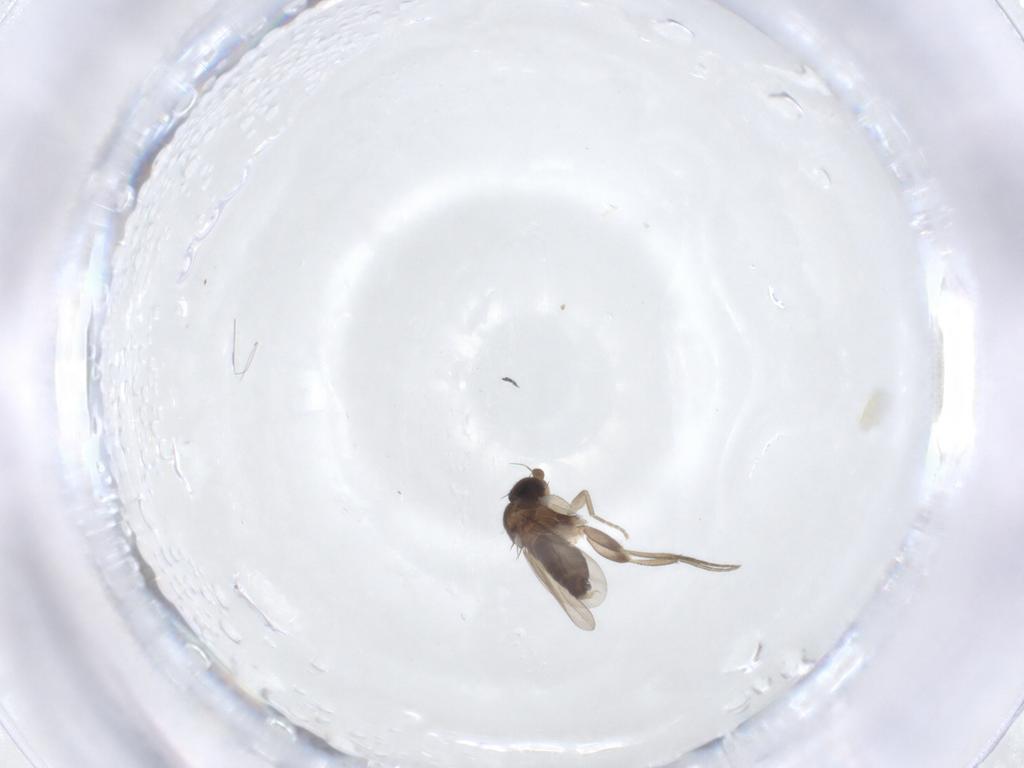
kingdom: Animalia
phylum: Arthropoda
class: Insecta
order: Diptera
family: Phoridae
